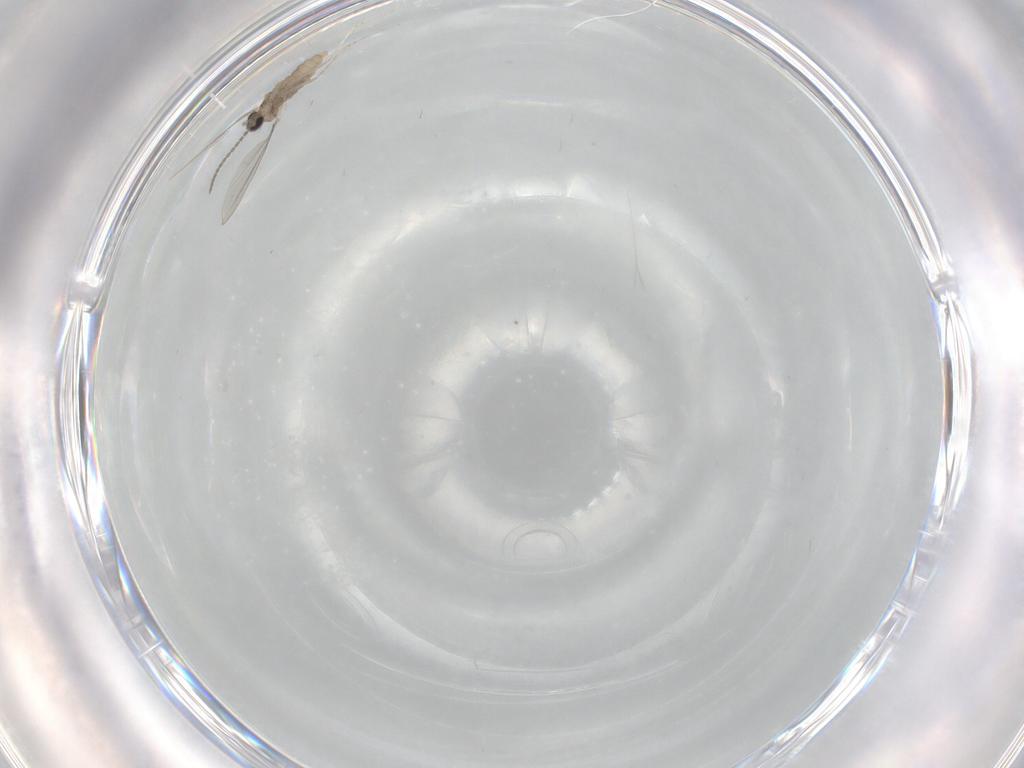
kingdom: Animalia
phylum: Arthropoda
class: Insecta
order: Diptera
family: Cecidomyiidae
